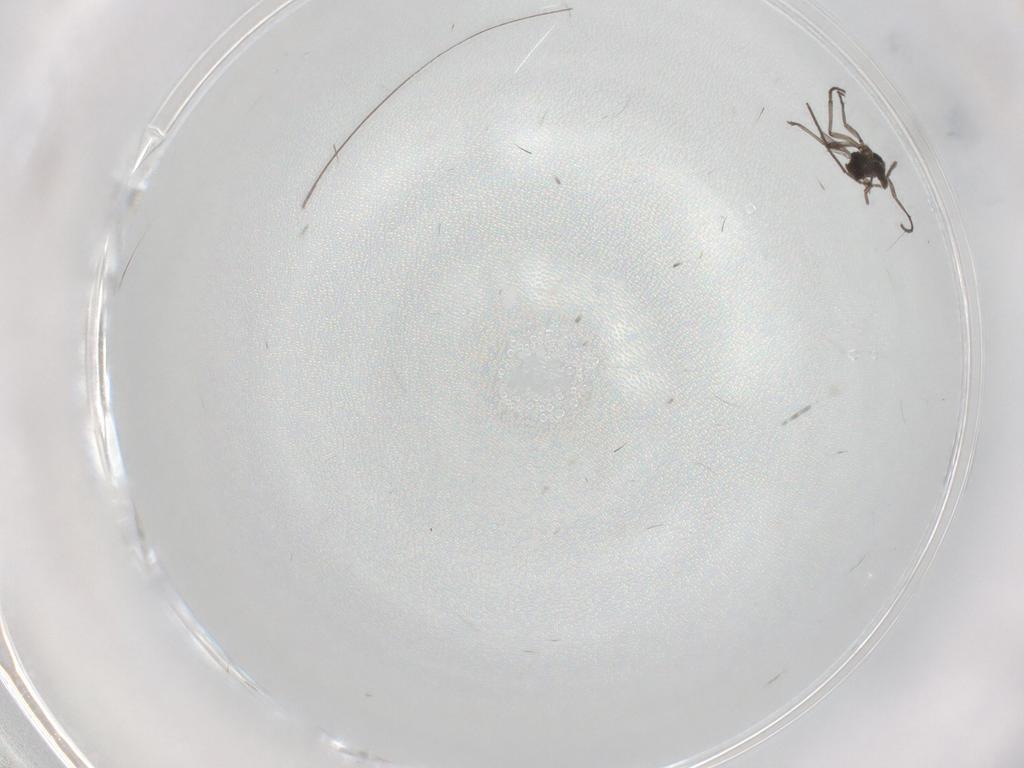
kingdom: Animalia
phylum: Arthropoda
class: Insecta
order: Diptera
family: Sciaridae
